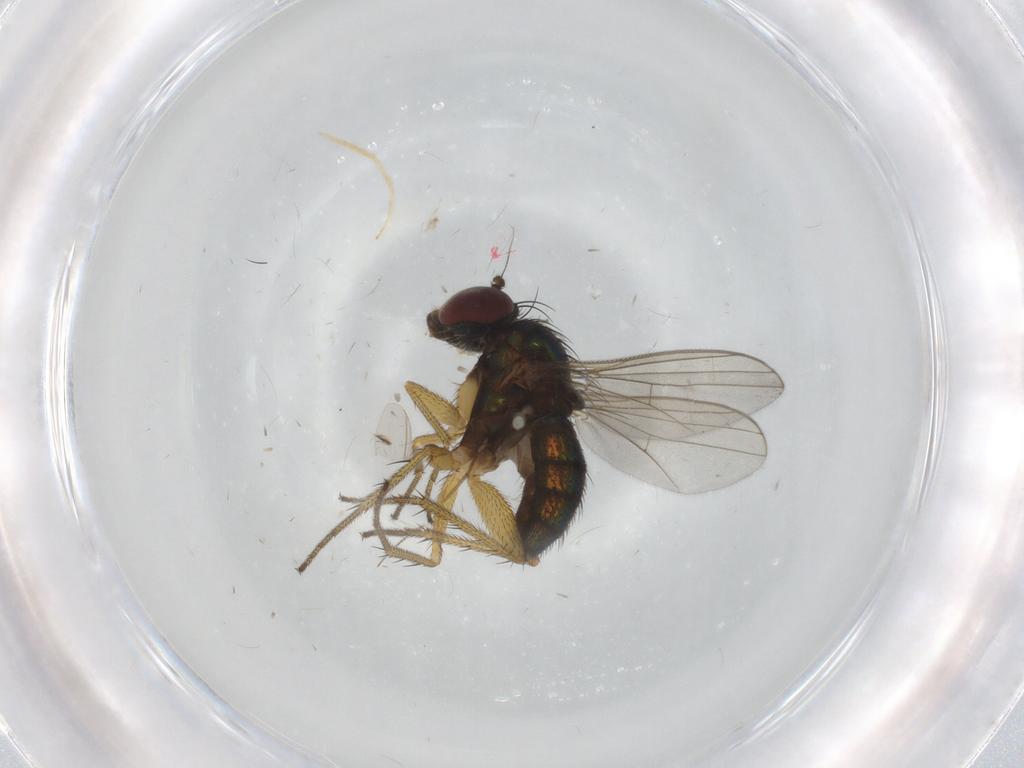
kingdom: Animalia
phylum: Arthropoda
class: Insecta
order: Diptera
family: Dolichopodidae
